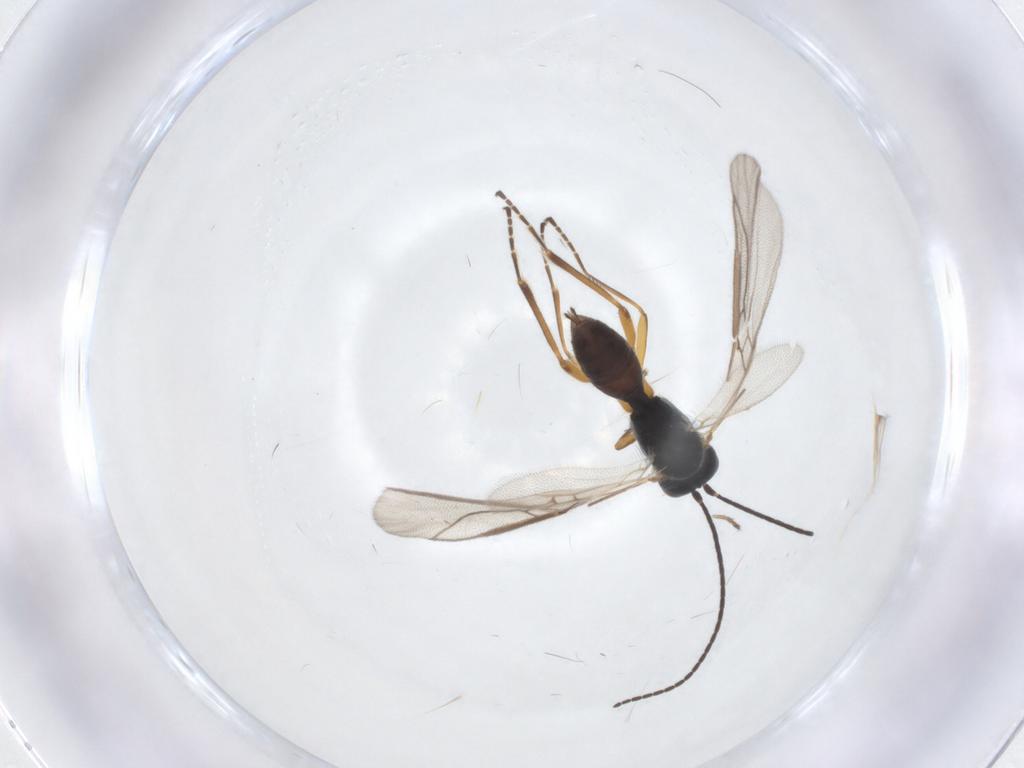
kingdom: Animalia
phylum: Arthropoda
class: Insecta
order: Hymenoptera
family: Braconidae
